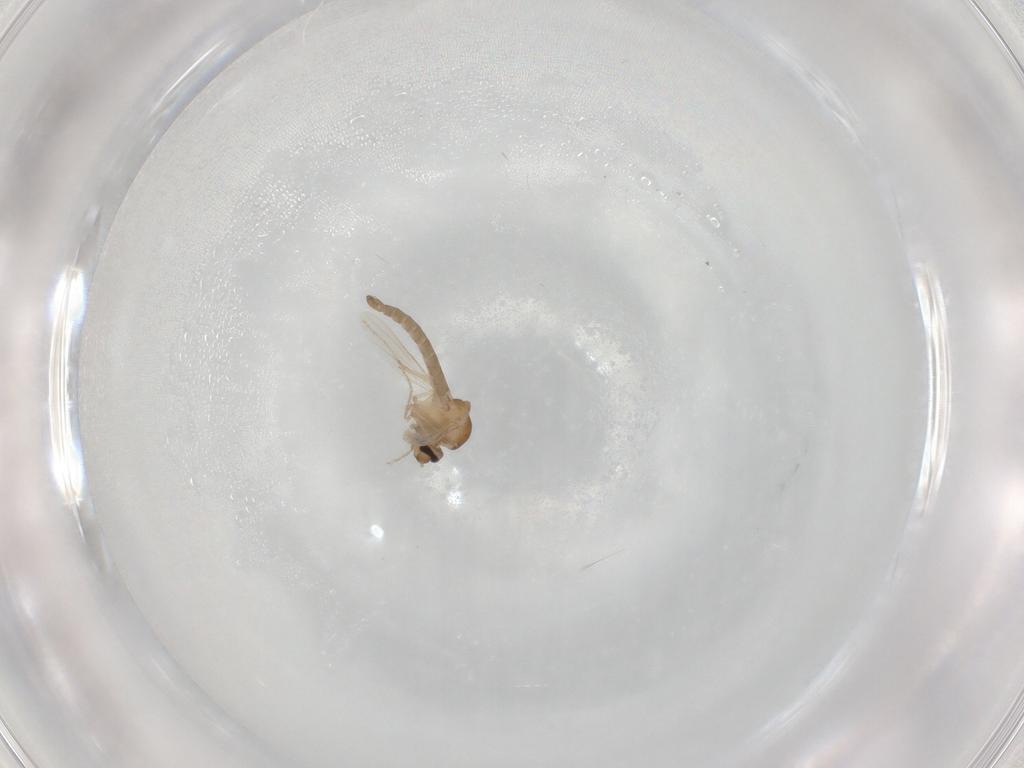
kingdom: Animalia
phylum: Arthropoda
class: Insecta
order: Diptera
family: Ceratopogonidae
